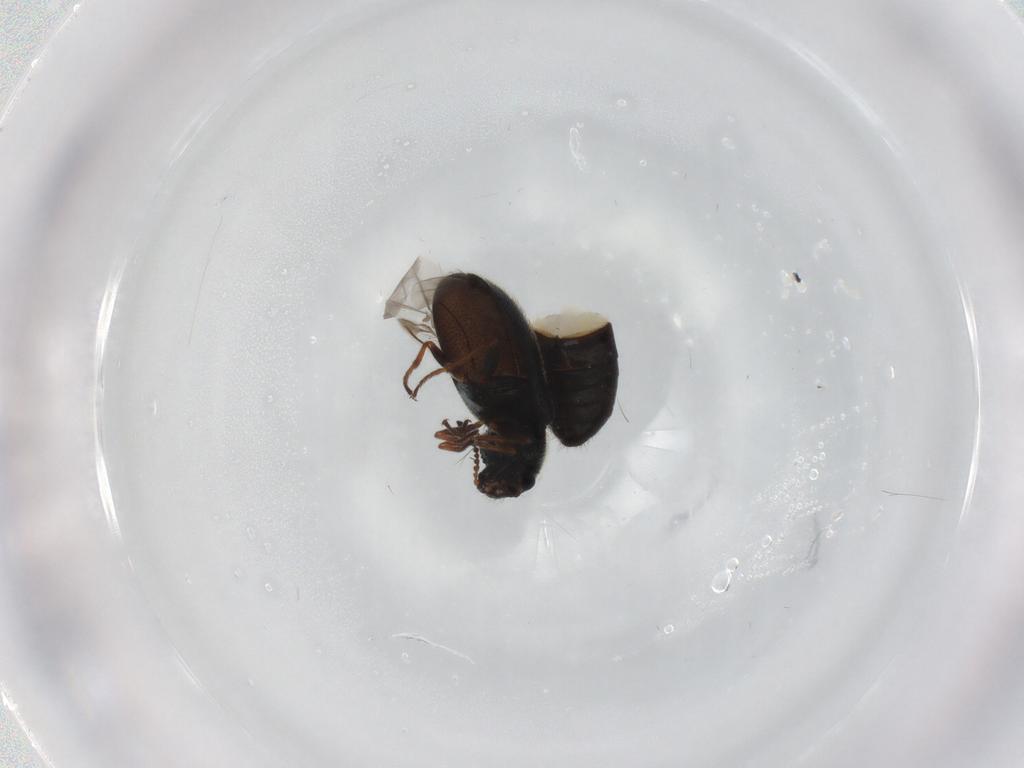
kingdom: Animalia
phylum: Arthropoda
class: Insecta
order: Coleoptera
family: Melyridae
